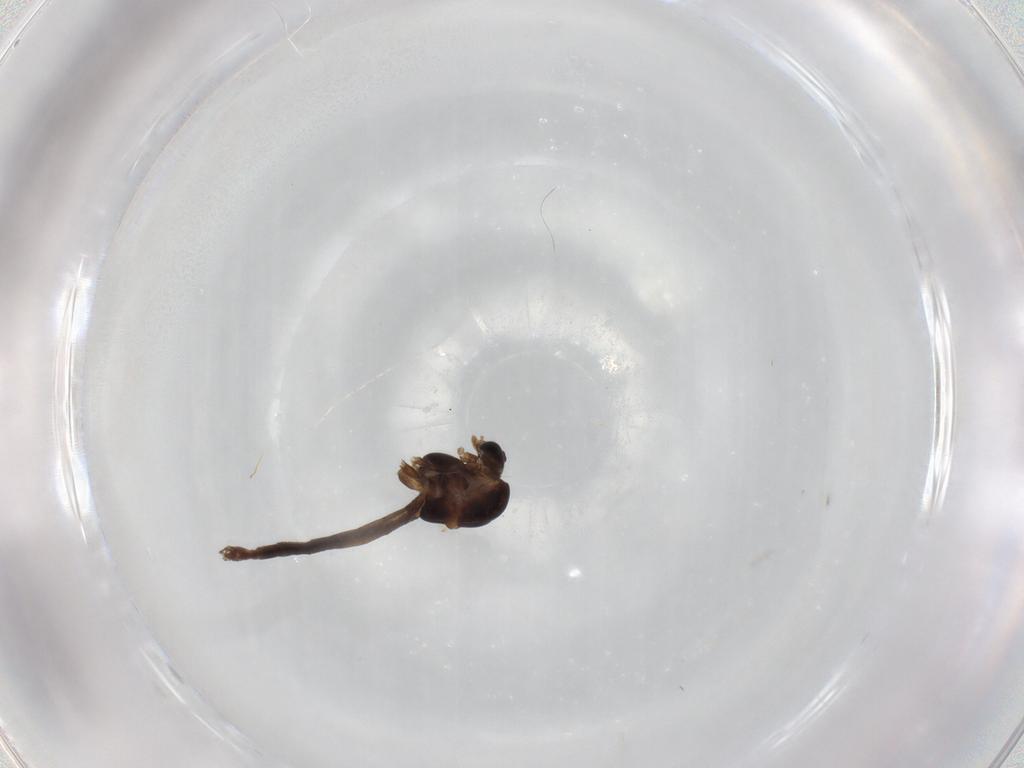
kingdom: Animalia
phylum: Arthropoda
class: Insecta
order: Diptera
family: Chironomidae
